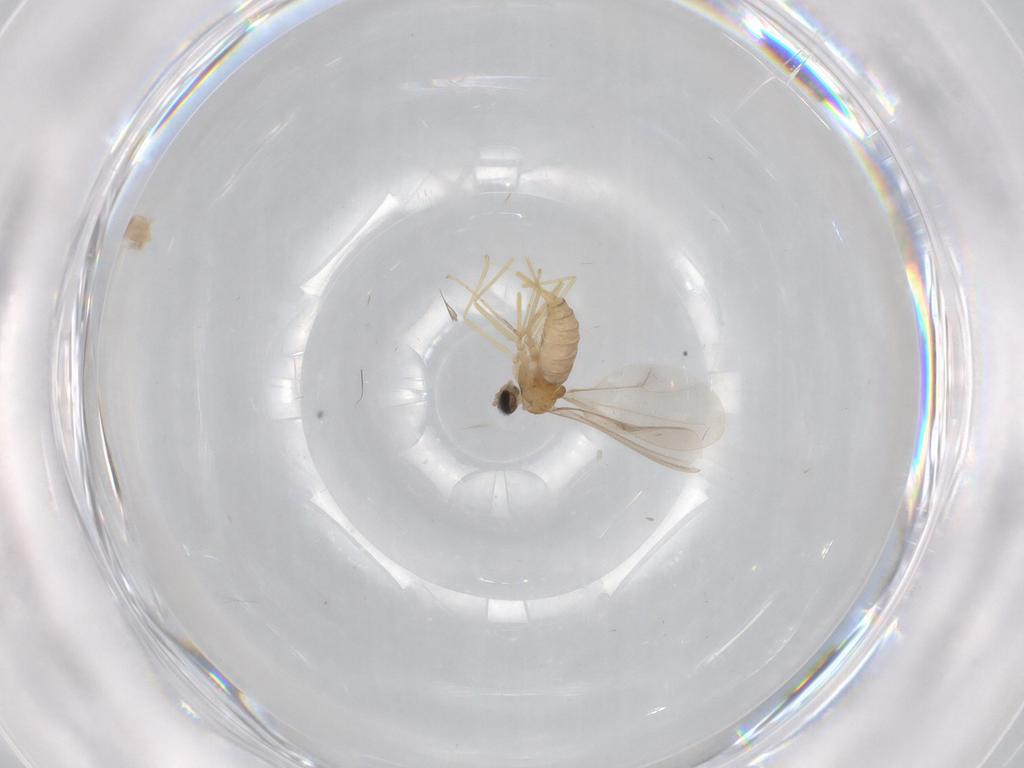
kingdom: Animalia
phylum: Arthropoda
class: Insecta
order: Diptera
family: Cecidomyiidae
